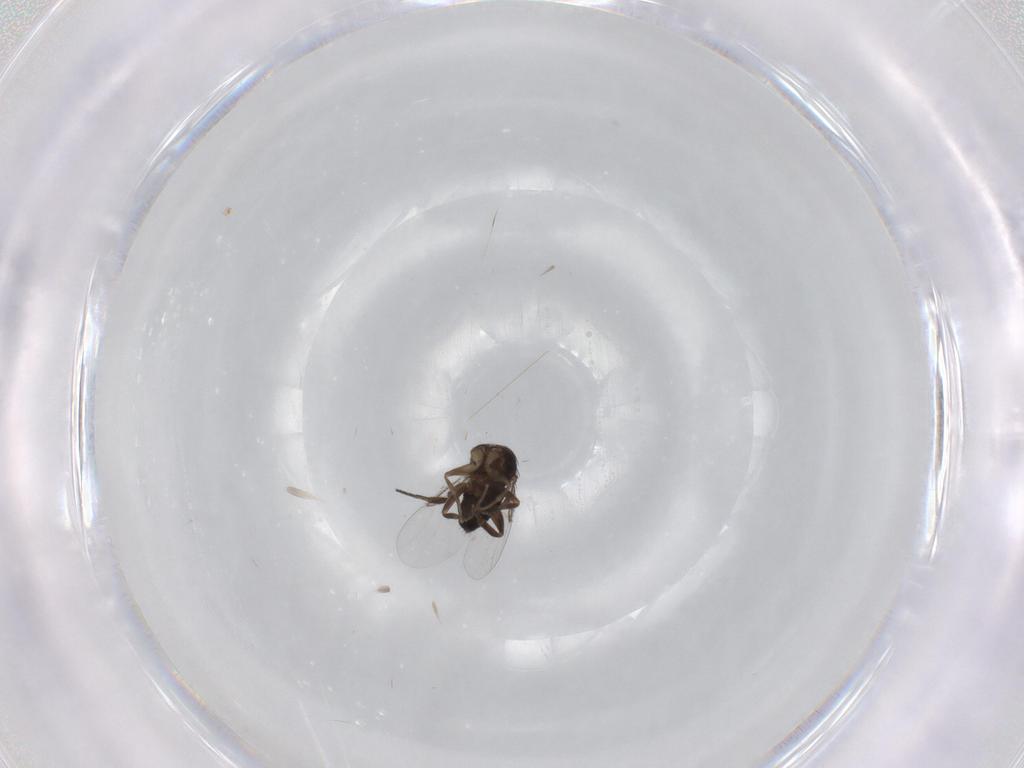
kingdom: Animalia
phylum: Arthropoda
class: Insecta
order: Diptera
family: Phoridae
